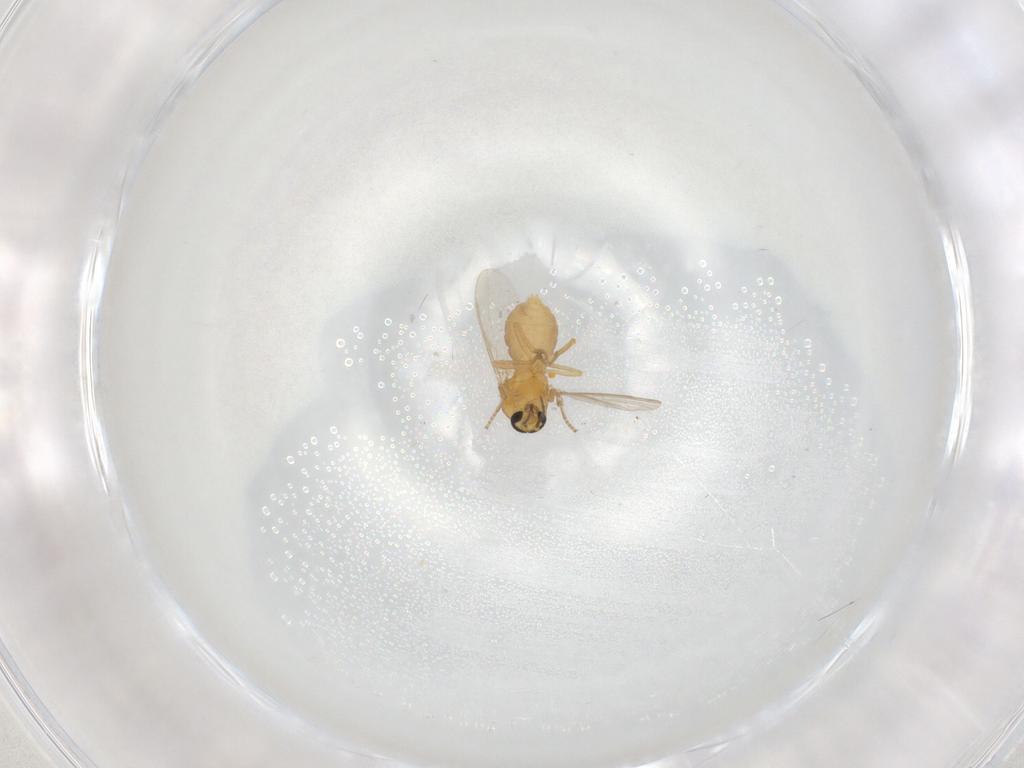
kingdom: Animalia
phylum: Arthropoda
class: Insecta
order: Diptera
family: Ceratopogonidae
